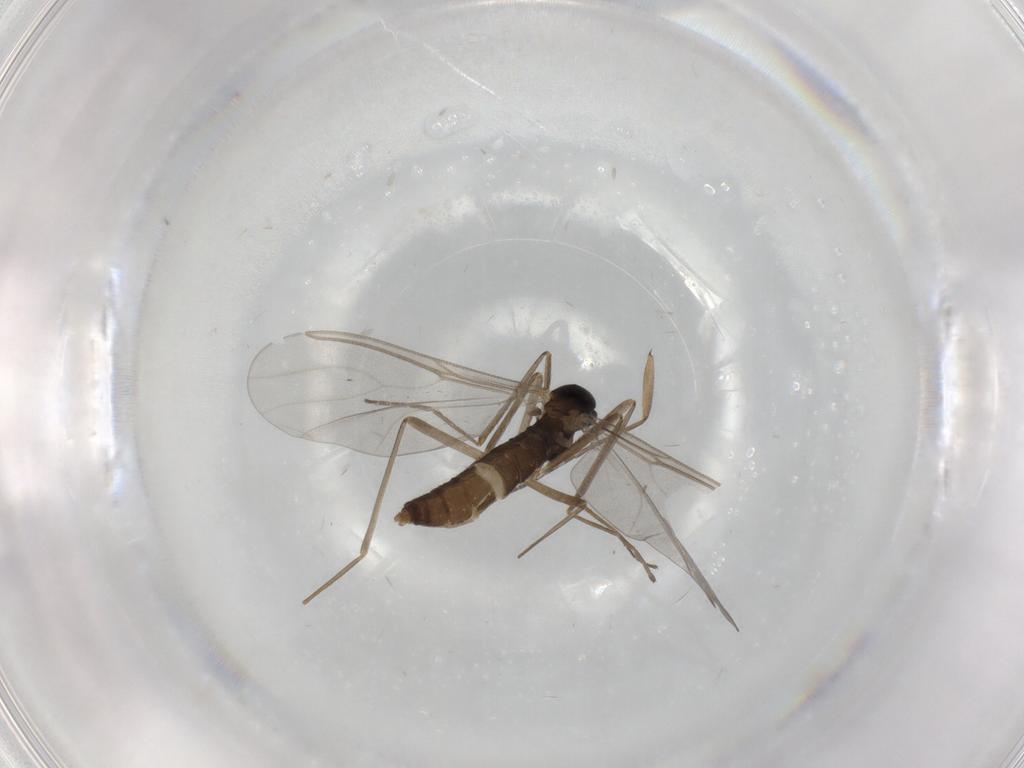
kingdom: Animalia
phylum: Arthropoda
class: Insecta
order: Diptera
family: Cecidomyiidae
